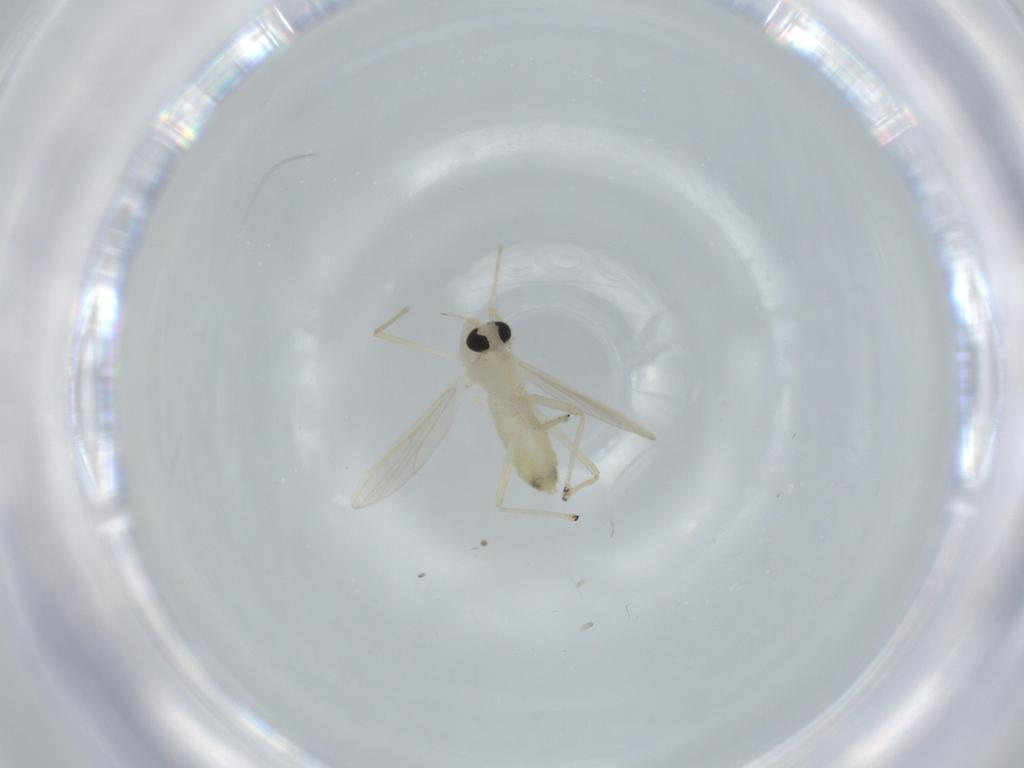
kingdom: Animalia
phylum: Arthropoda
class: Insecta
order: Diptera
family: Chironomidae
